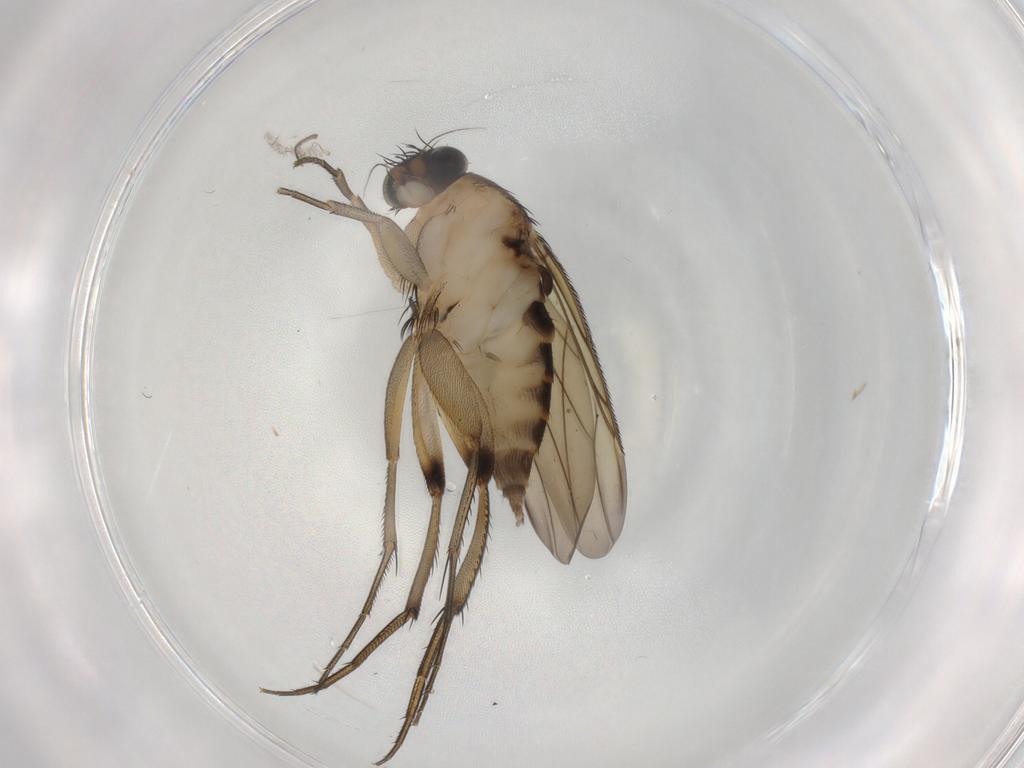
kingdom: Animalia
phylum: Arthropoda
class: Insecta
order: Diptera
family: Phoridae
